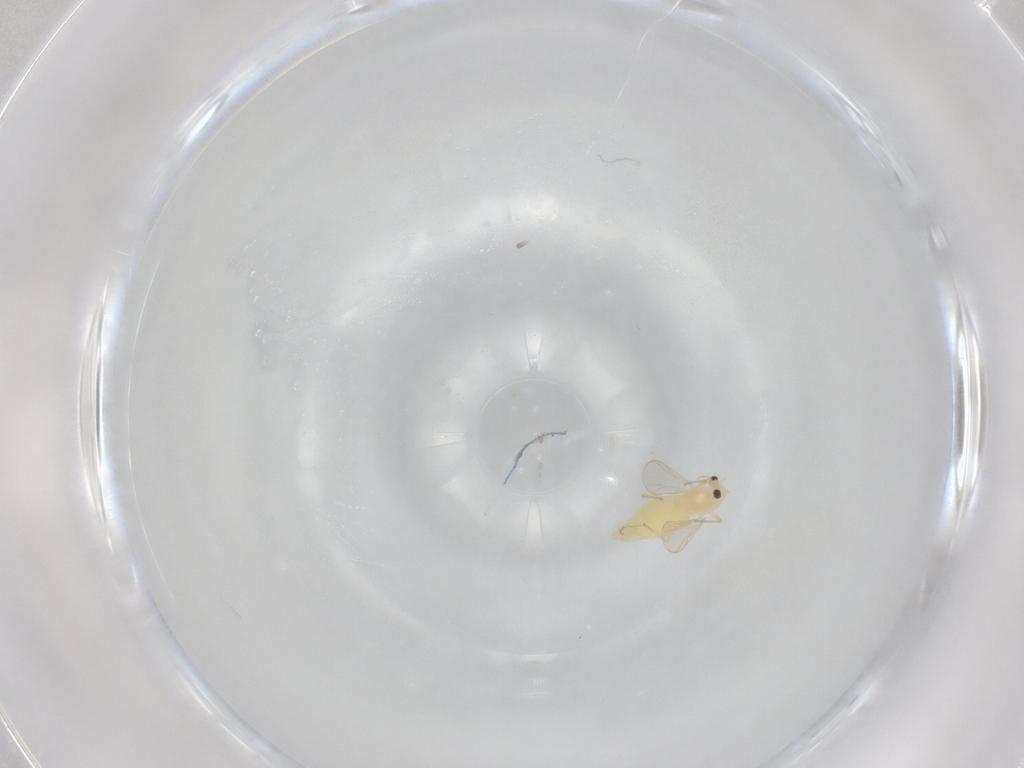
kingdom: Animalia
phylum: Arthropoda
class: Insecta
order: Diptera
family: Chironomidae
